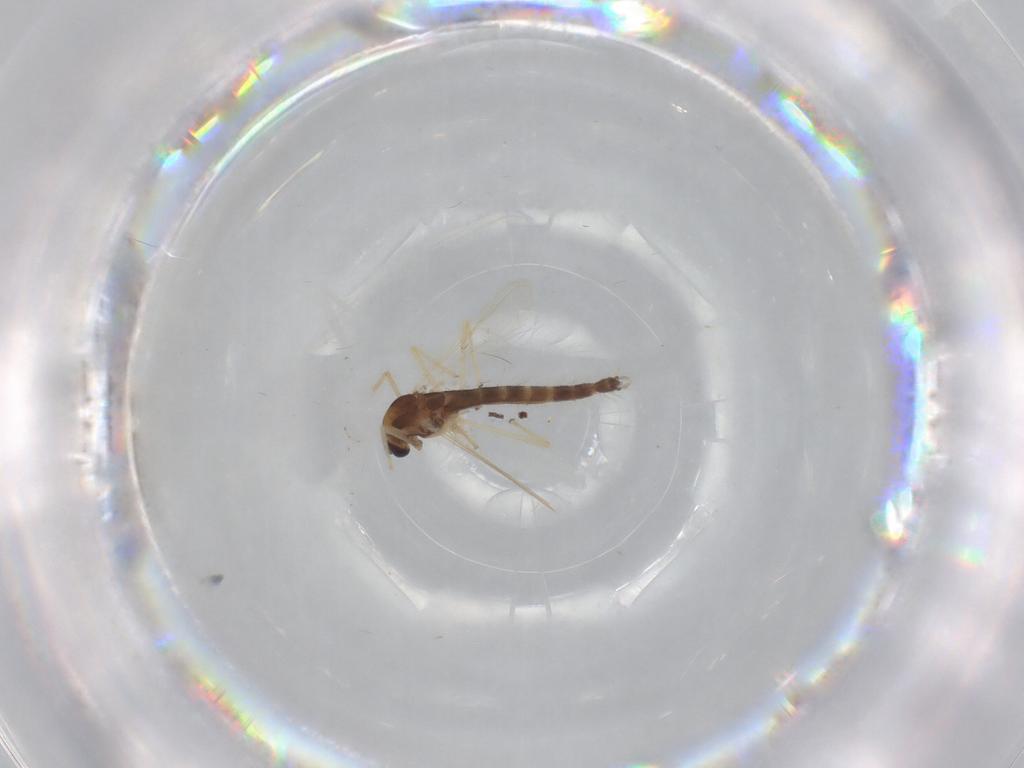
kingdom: Animalia
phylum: Arthropoda
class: Insecta
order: Diptera
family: Chironomidae
